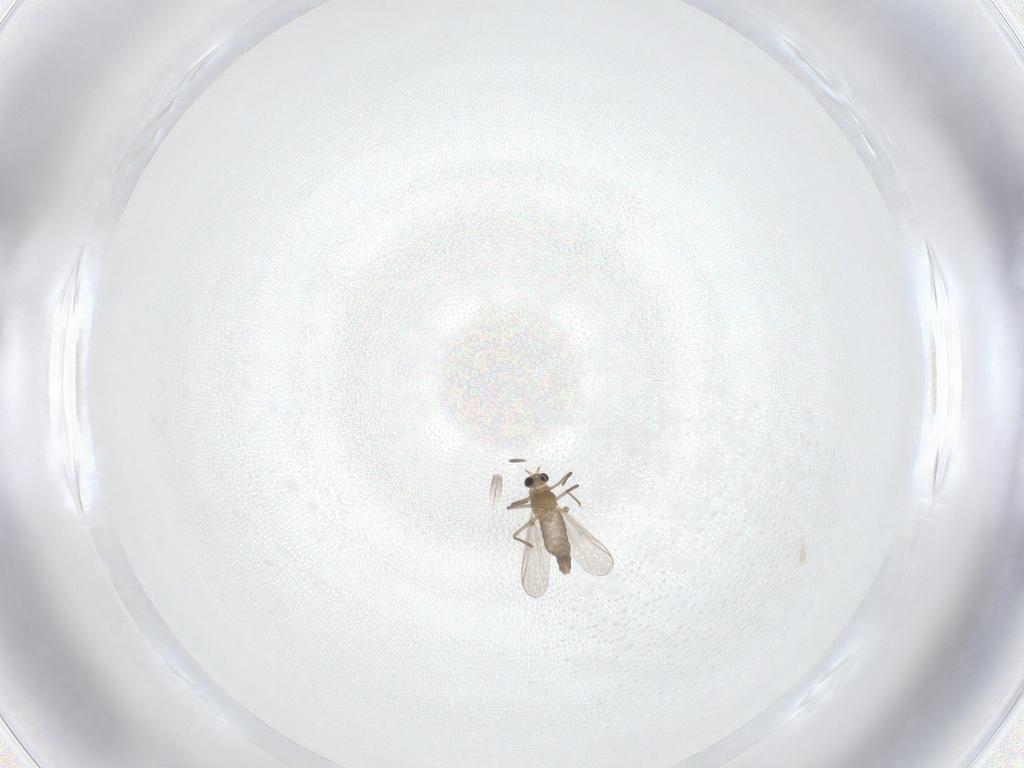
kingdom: Animalia
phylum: Arthropoda
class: Insecta
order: Diptera
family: Chironomidae
